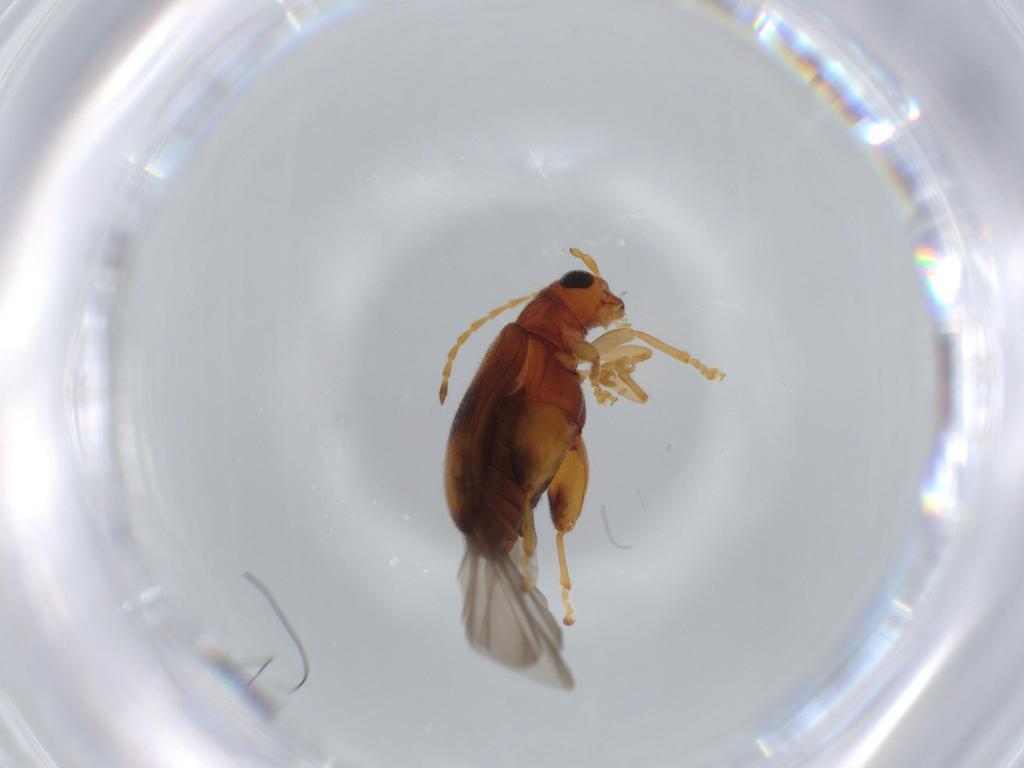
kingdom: Animalia
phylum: Arthropoda
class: Insecta
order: Coleoptera
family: Chrysomelidae
